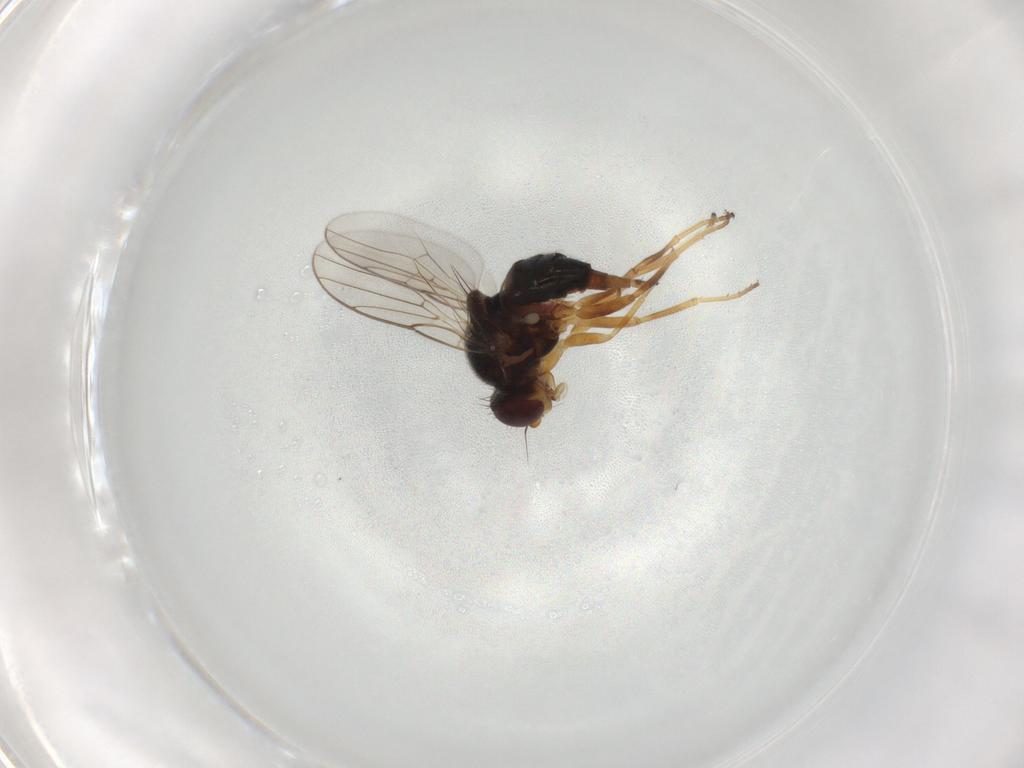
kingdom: Animalia
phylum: Arthropoda
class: Insecta
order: Diptera
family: Chloropidae
